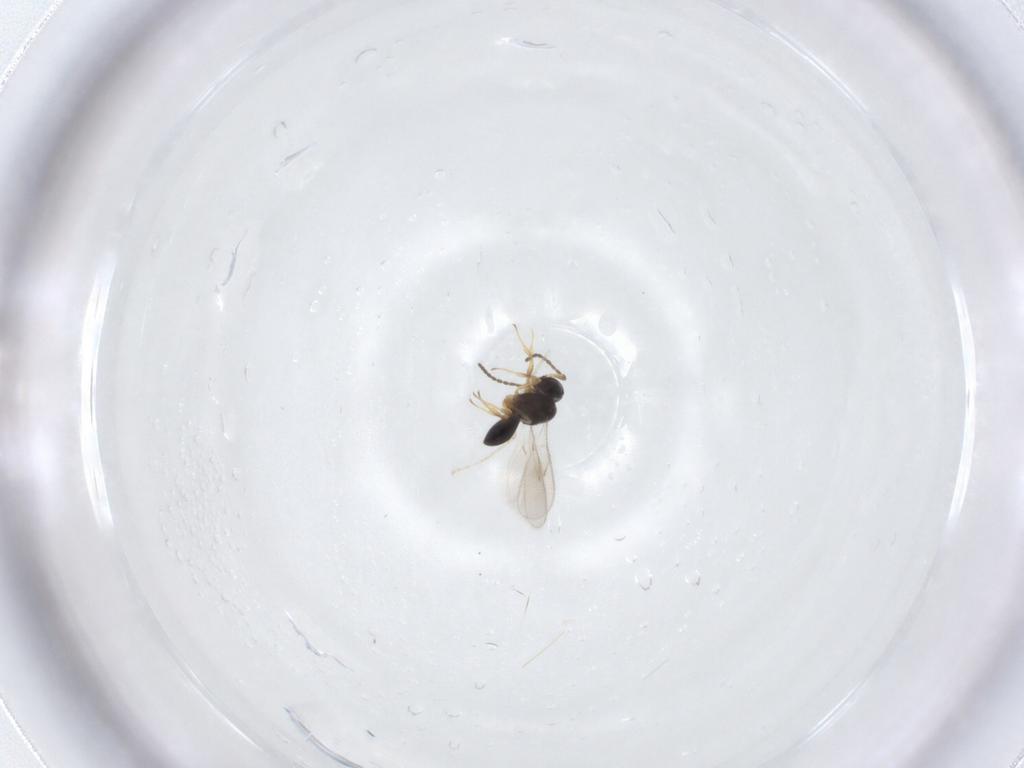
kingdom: Animalia
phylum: Arthropoda
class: Insecta
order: Hymenoptera
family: Scelionidae
